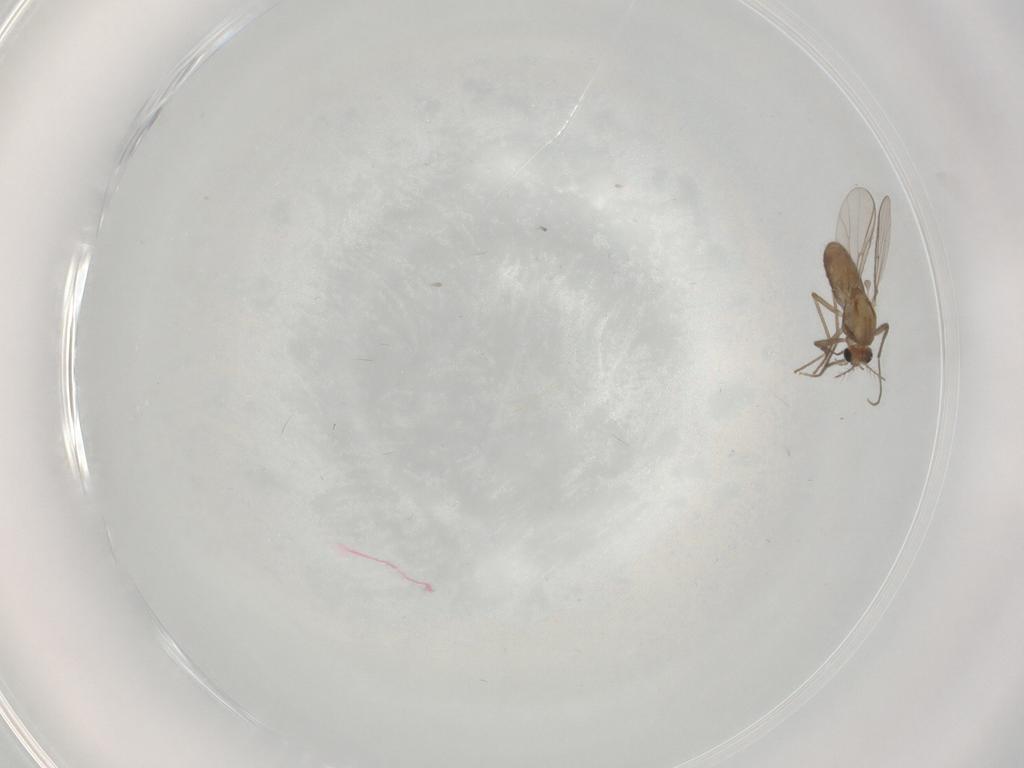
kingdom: Animalia
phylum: Arthropoda
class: Insecta
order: Diptera
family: Chironomidae
